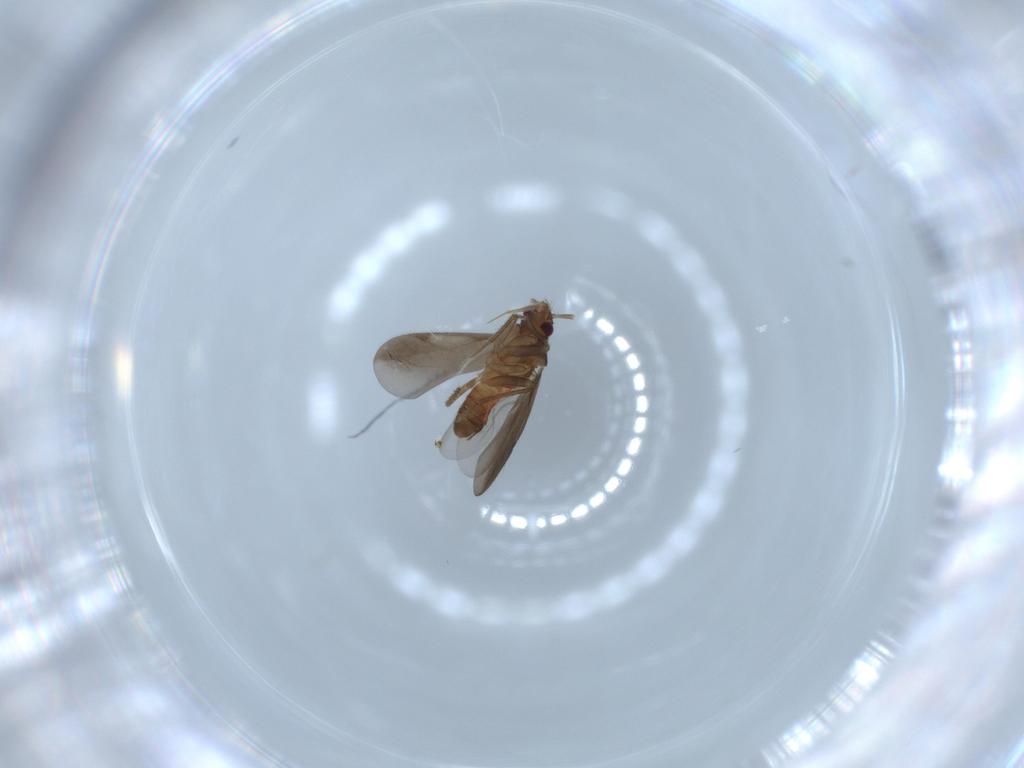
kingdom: Animalia
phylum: Arthropoda
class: Insecta
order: Hemiptera
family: Ceratocombidae
